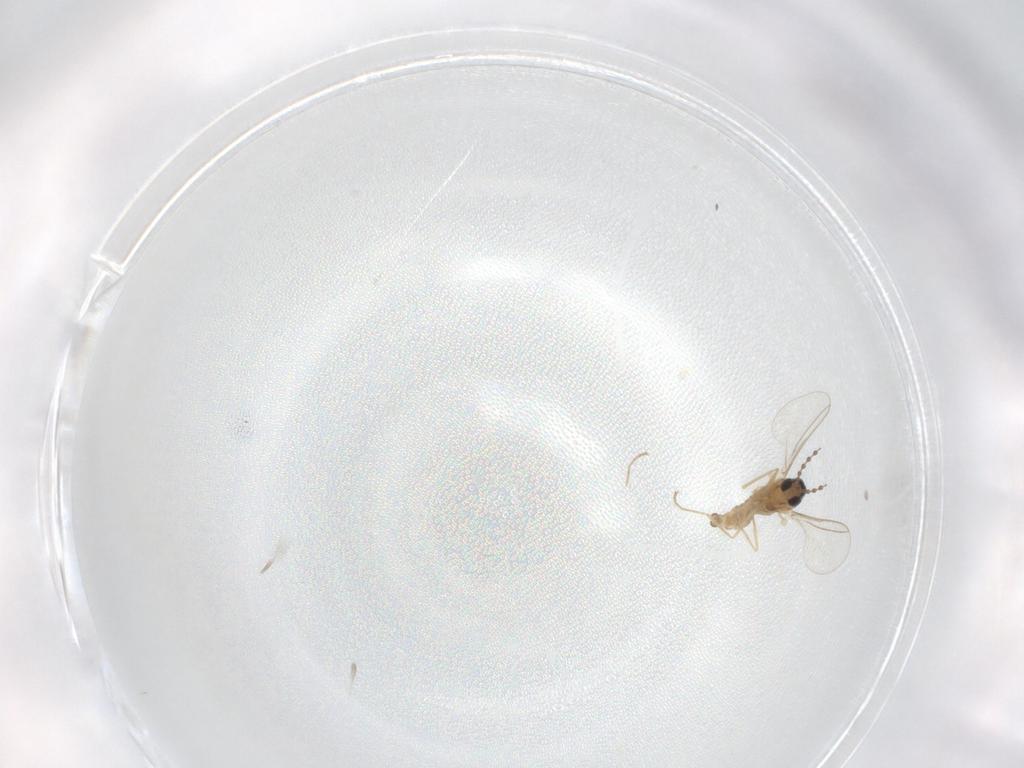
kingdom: Animalia
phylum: Arthropoda
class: Insecta
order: Diptera
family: Cecidomyiidae
